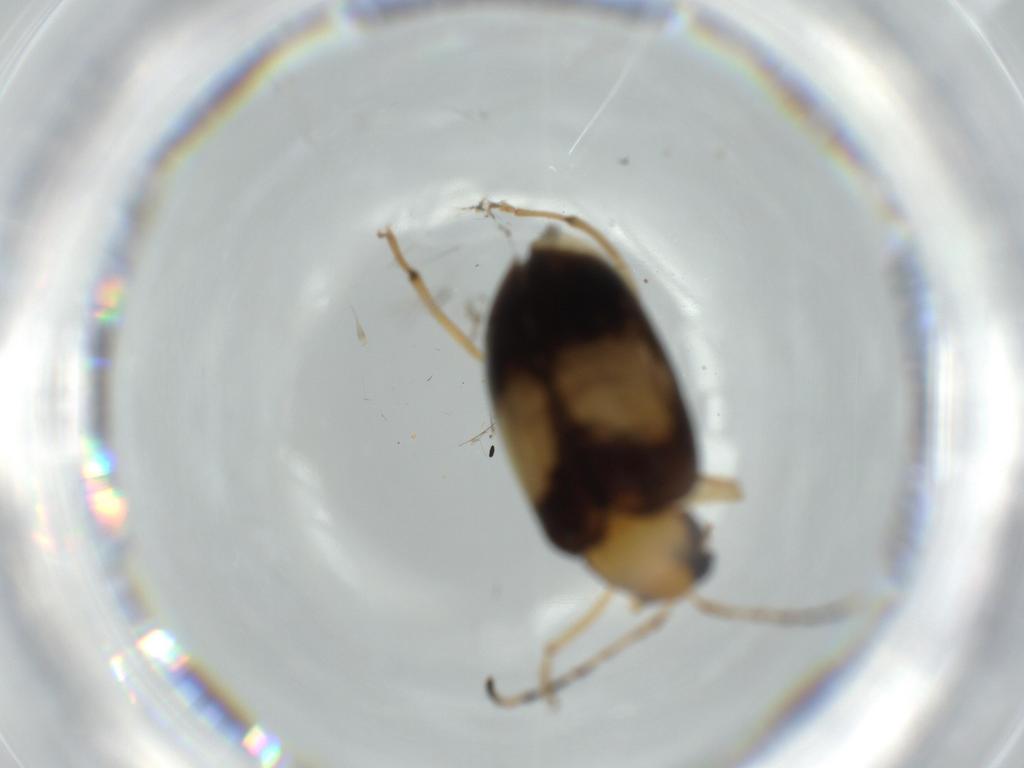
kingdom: Animalia
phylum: Arthropoda
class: Insecta
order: Coleoptera
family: Chrysomelidae
